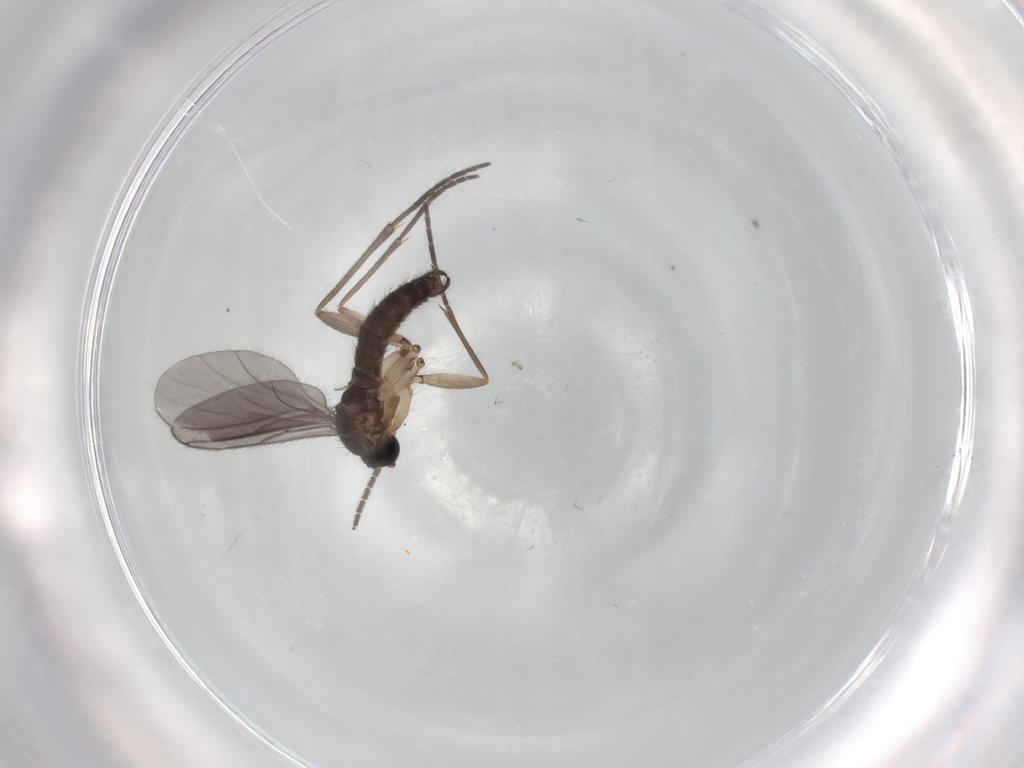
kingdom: Animalia
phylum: Arthropoda
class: Insecta
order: Diptera
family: Sciaridae
